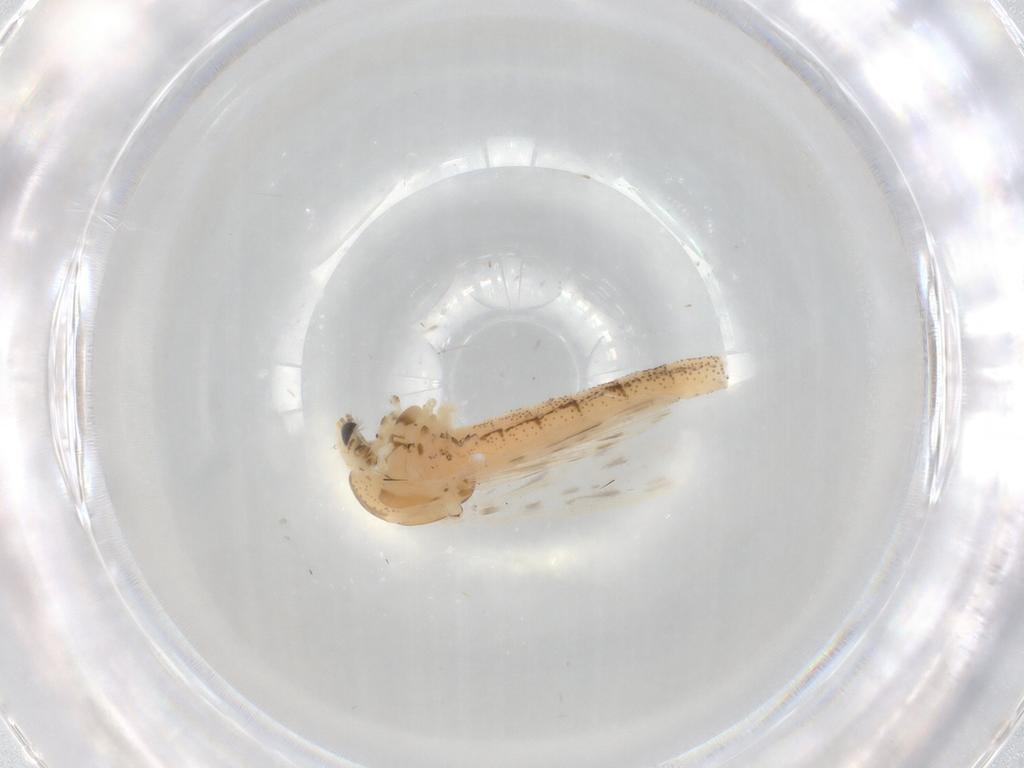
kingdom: Animalia
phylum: Arthropoda
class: Insecta
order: Diptera
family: Chaoboridae
